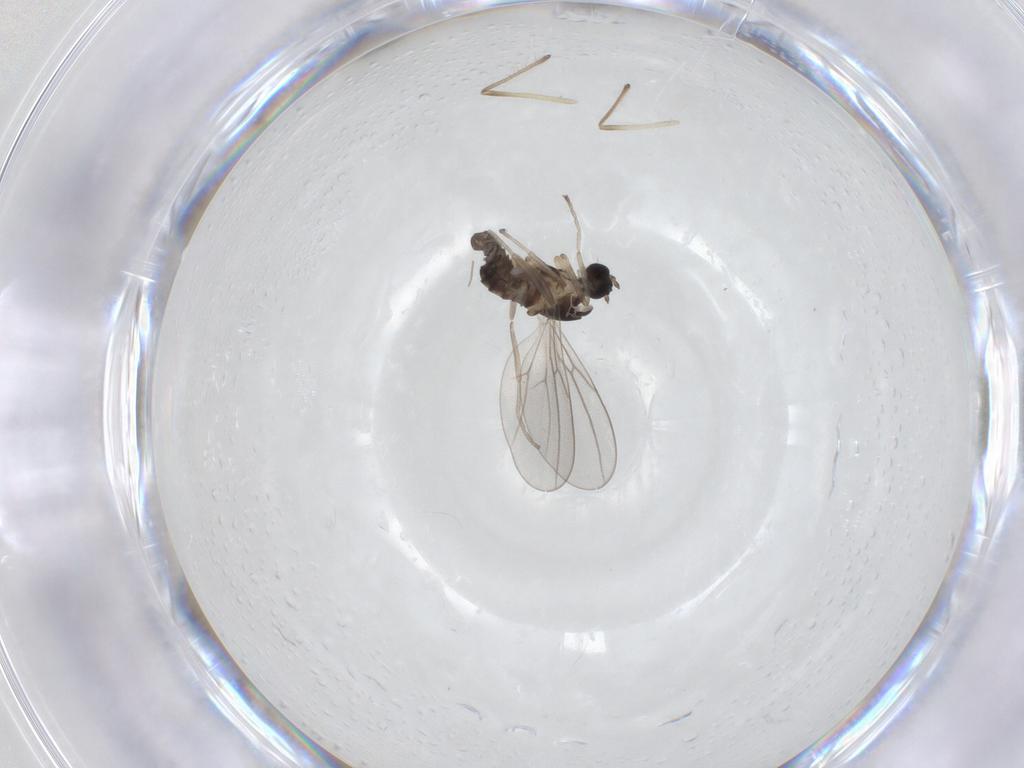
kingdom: Animalia
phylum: Arthropoda
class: Insecta
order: Diptera
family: Cecidomyiidae
